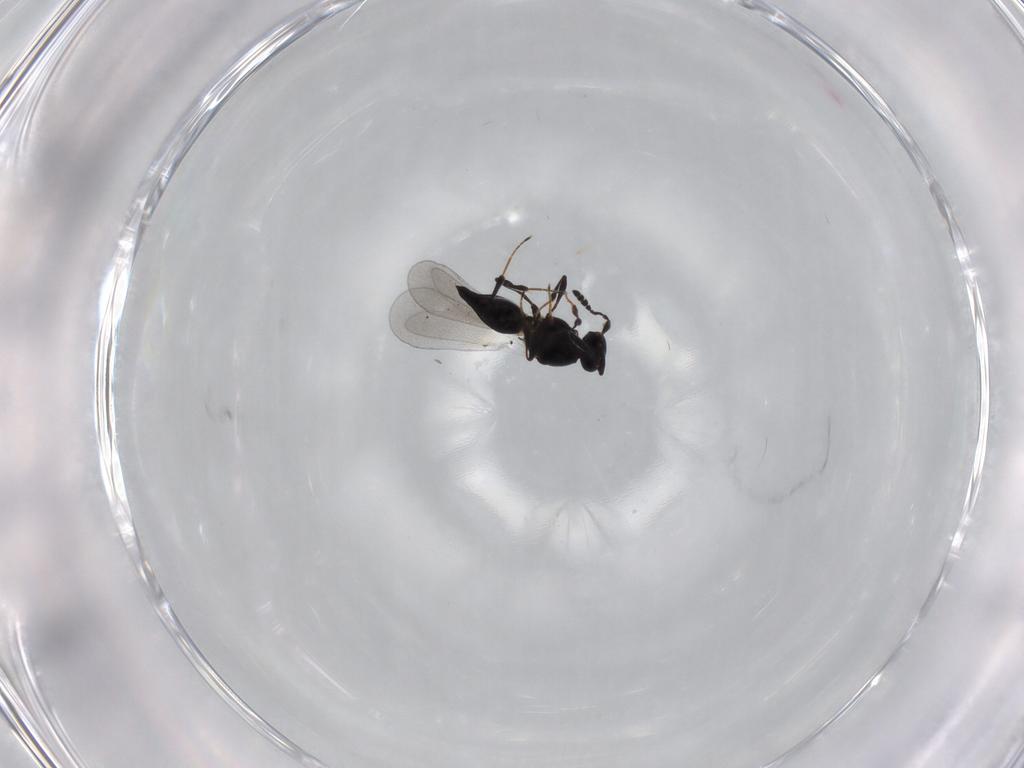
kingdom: Animalia
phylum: Arthropoda
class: Insecta
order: Hymenoptera
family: Platygastridae
